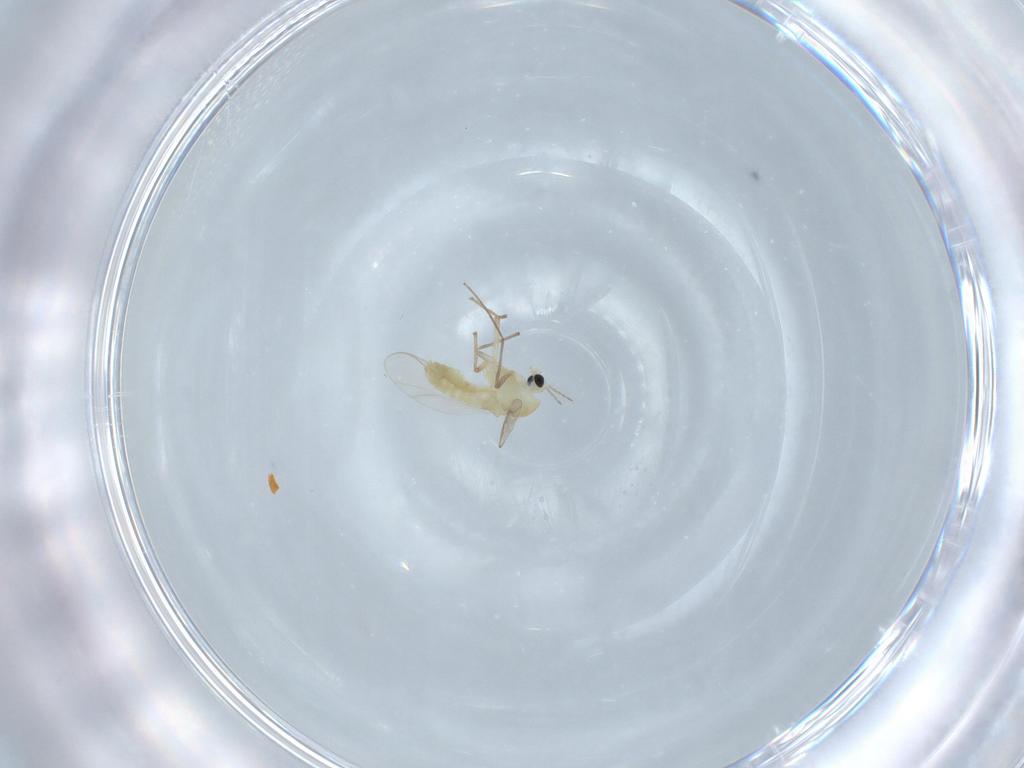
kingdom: Animalia
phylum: Arthropoda
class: Insecta
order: Diptera
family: Chironomidae
